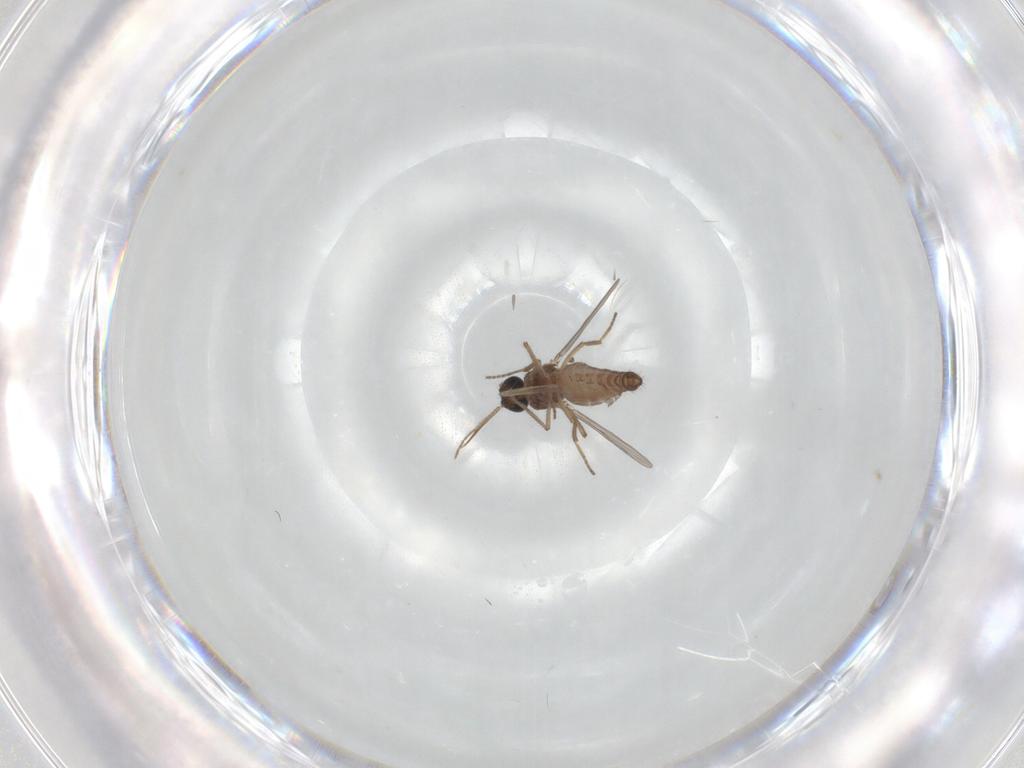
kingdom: Animalia
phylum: Arthropoda
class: Insecta
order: Diptera
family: Ceratopogonidae
